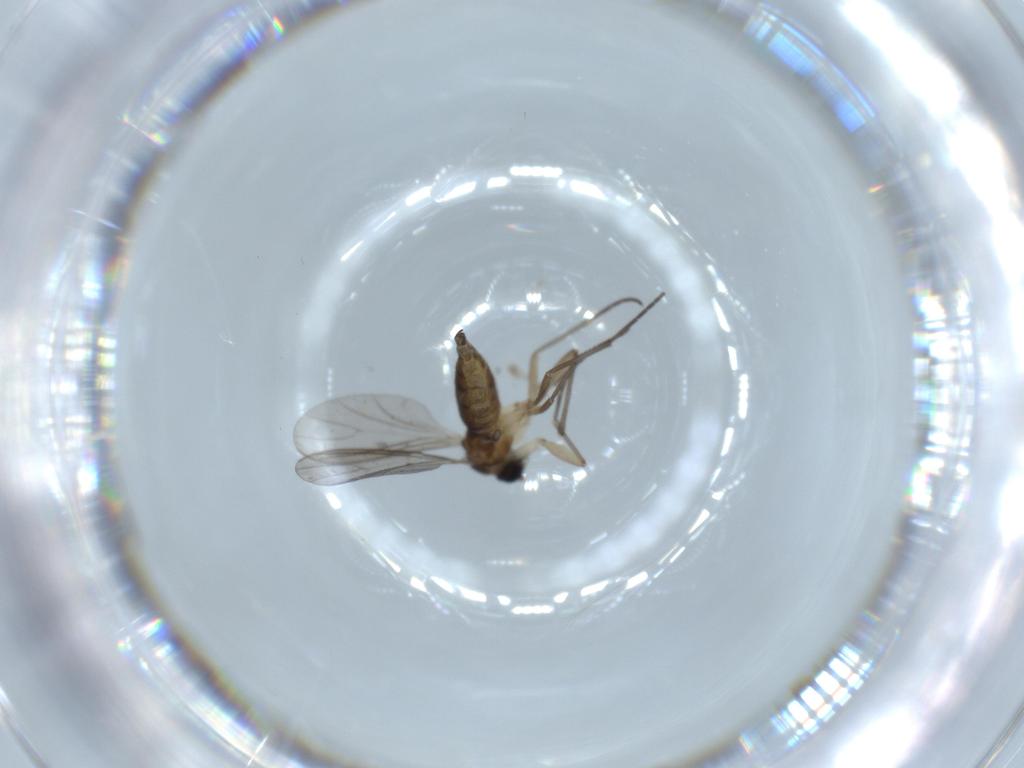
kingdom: Animalia
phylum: Arthropoda
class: Insecta
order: Diptera
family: Sciaridae
